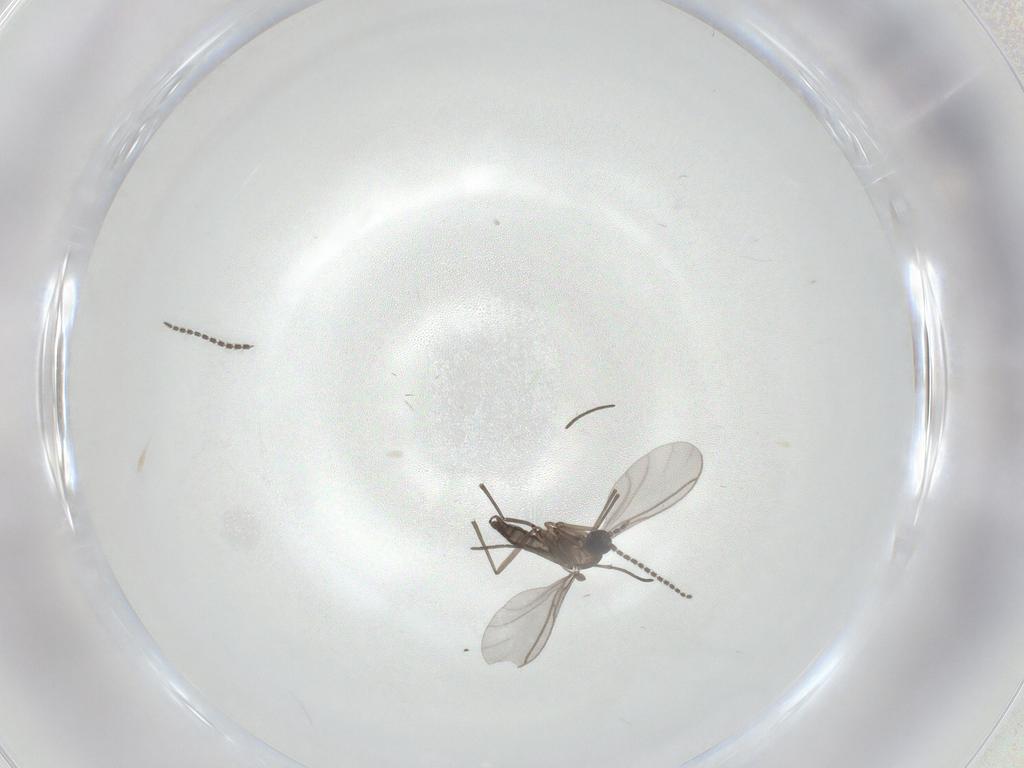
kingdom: Animalia
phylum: Arthropoda
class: Insecta
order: Diptera
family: Sciaridae
